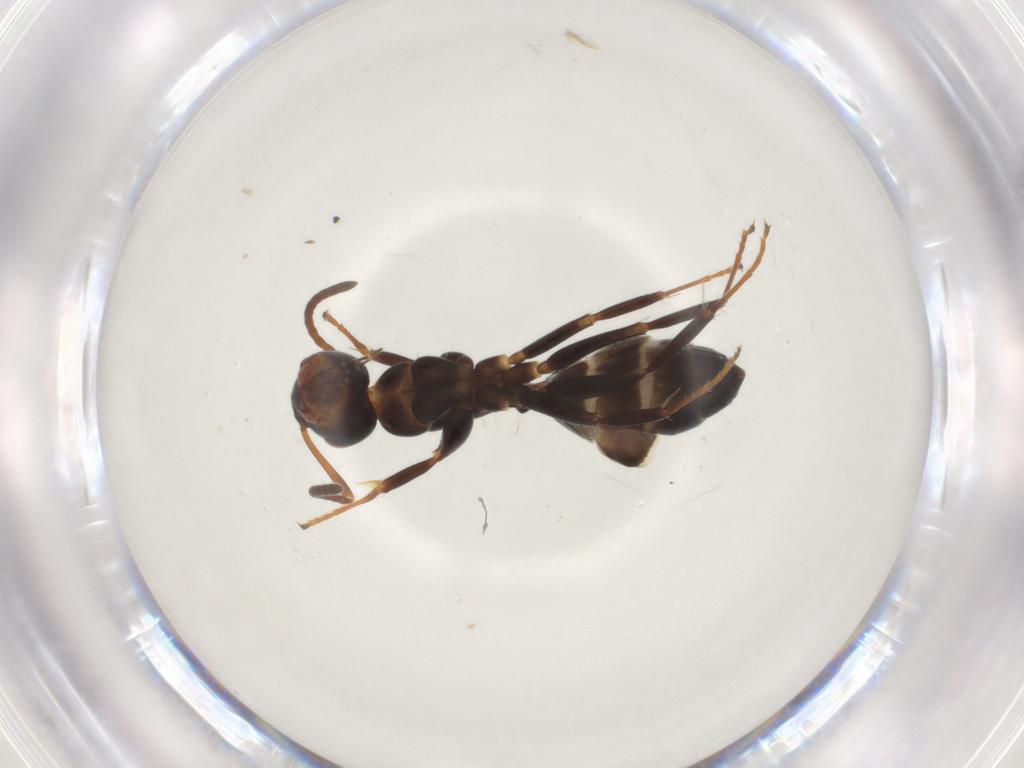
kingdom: Animalia
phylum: Arthropoda
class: Insecta
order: Hymenoptera
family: Formicidae
